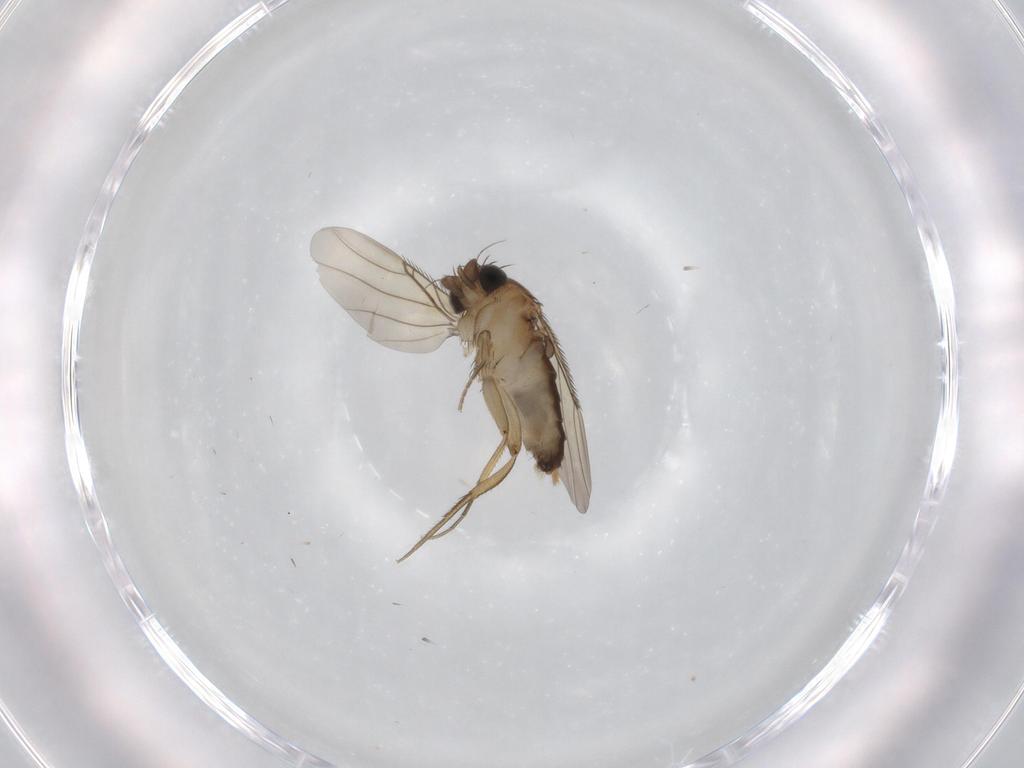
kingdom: Animalia
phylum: Arthropoda
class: Insecta
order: Diptera
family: Phoridae
